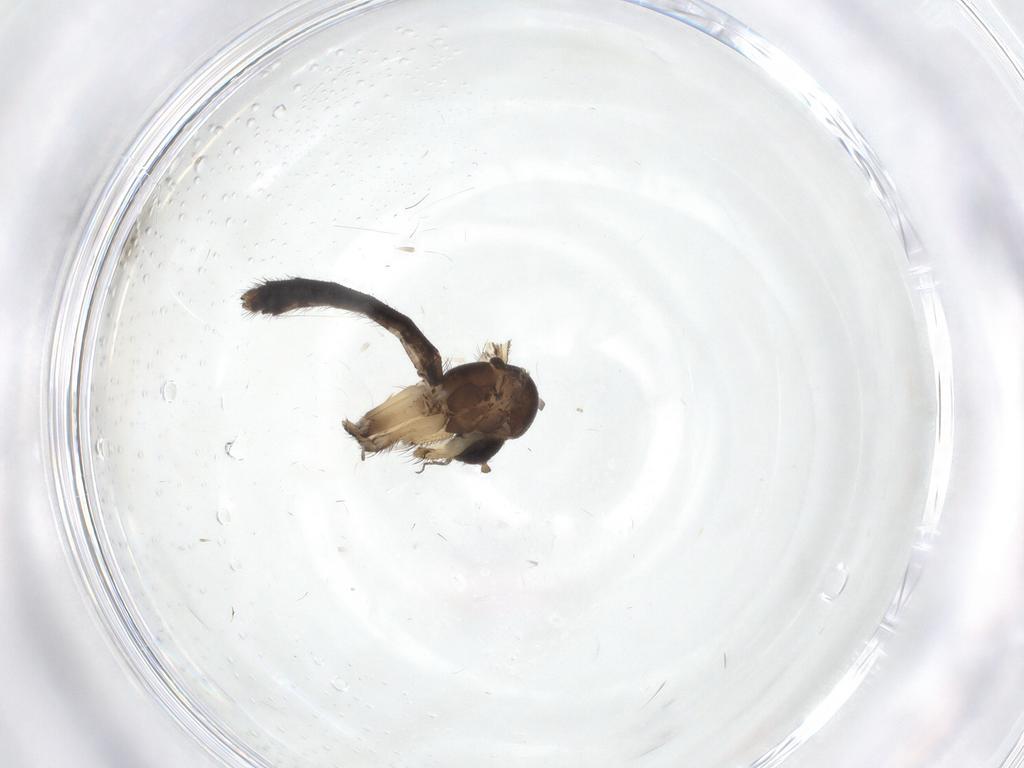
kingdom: Animalia
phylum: Arthropoda
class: Insecta
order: Diptera
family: Mycetophilidae
